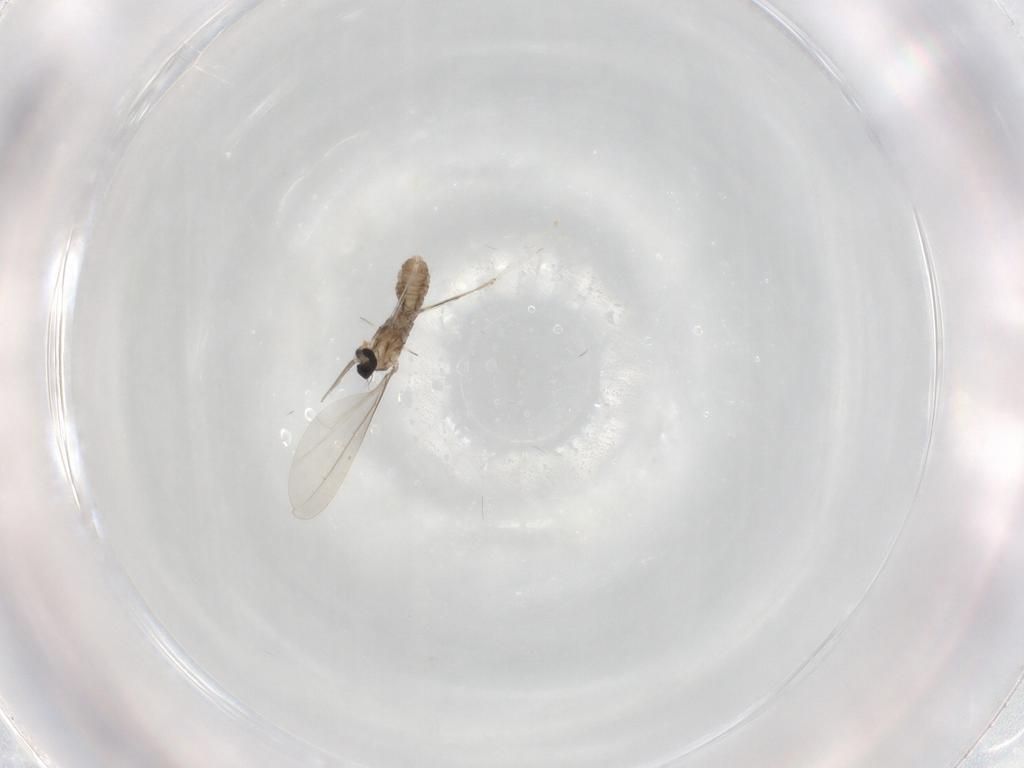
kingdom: Animalia
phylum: Arthropoda
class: Insecta
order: Diptera
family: Cecidomyiidae
